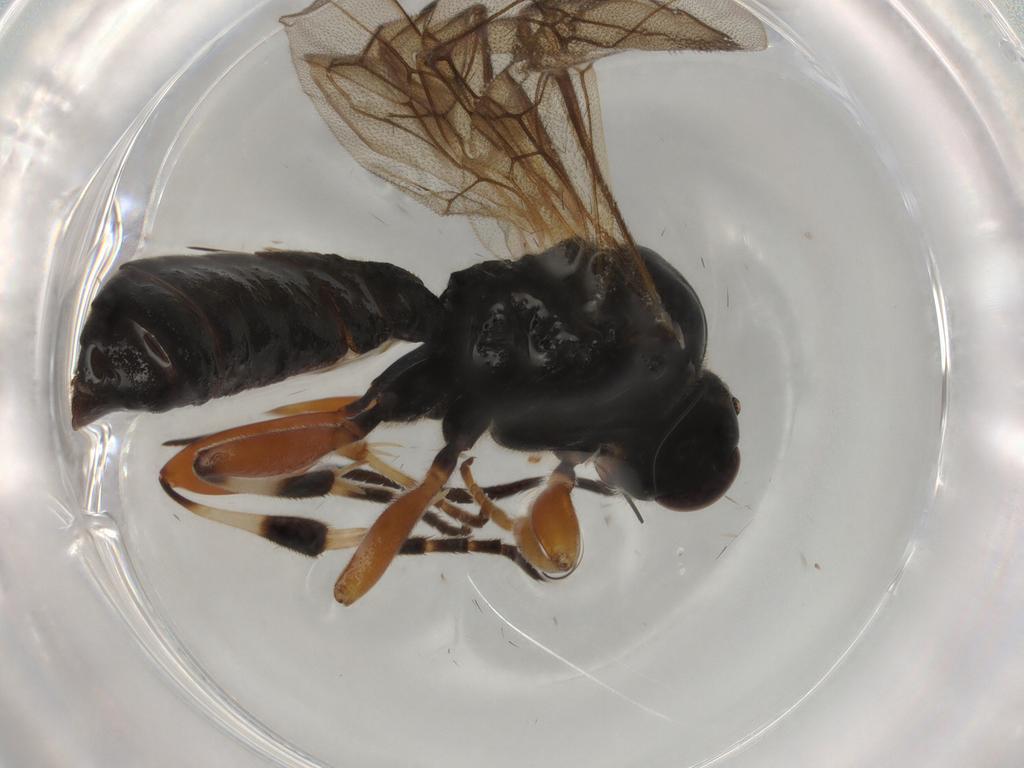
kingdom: Animalia
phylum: Arthropoda
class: Insecta
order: Hymenoptera
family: Ichneumonidae
